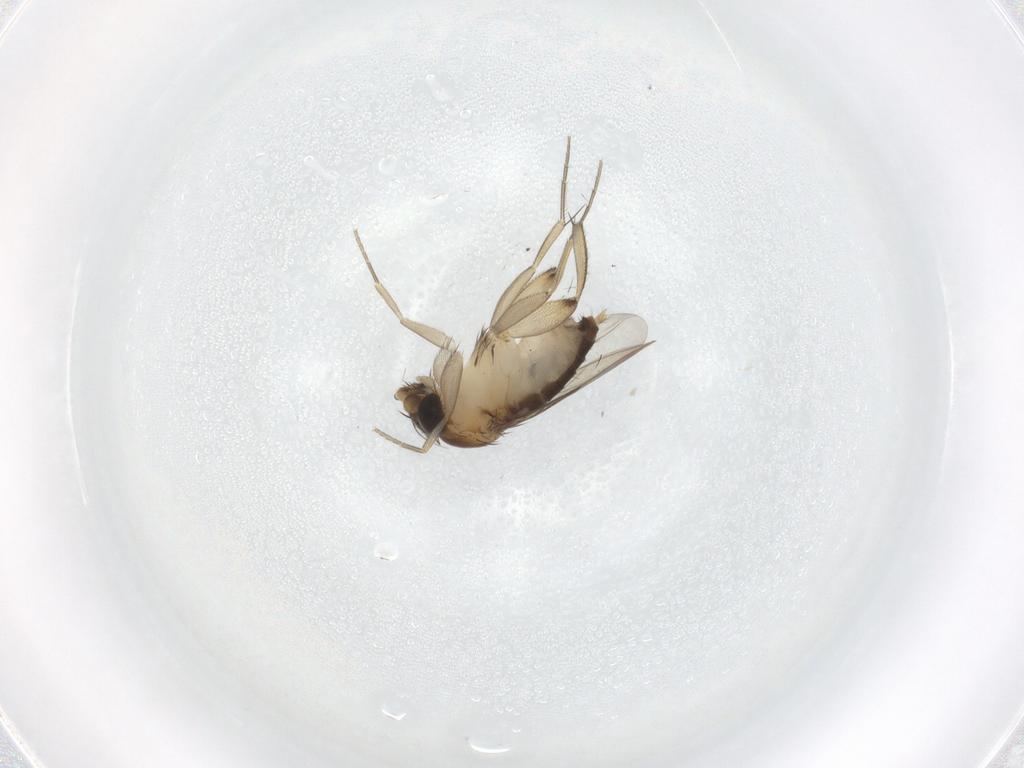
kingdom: Animalia
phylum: Arthropoda
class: Insecta
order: Diptera
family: Phoridae
